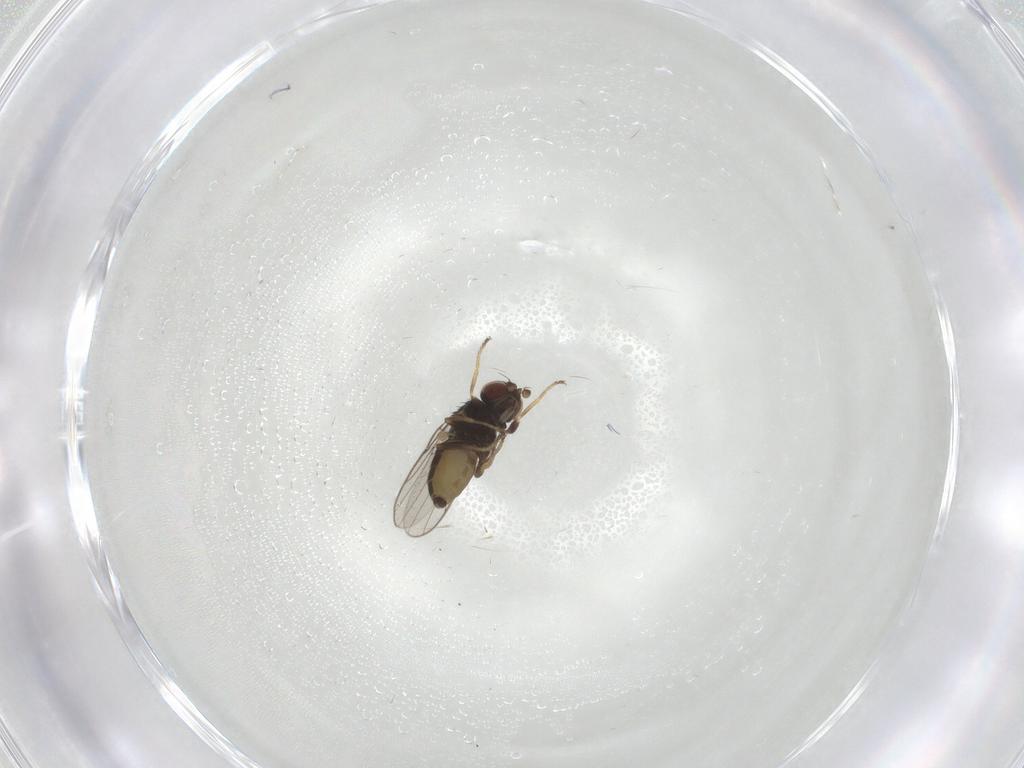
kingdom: Animalia
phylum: Arthropoda
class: Insecta
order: Diptera
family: Chloropidae
